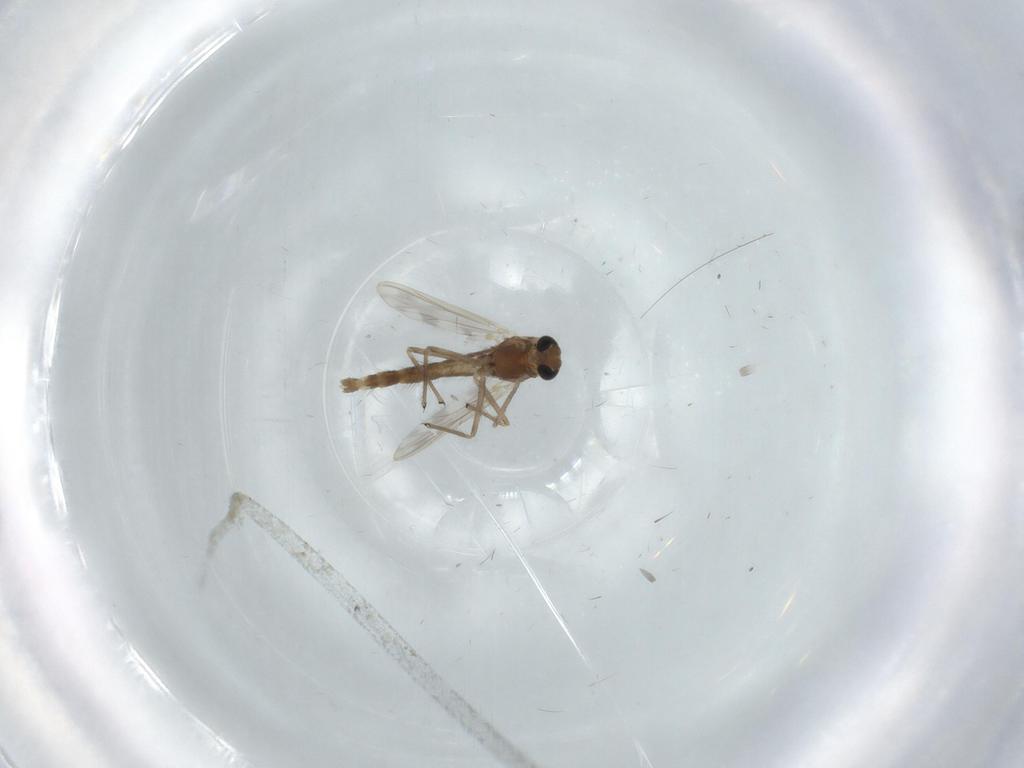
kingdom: Animalia
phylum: Arthropoda
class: Insecta
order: Diptera
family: Chironomidae
